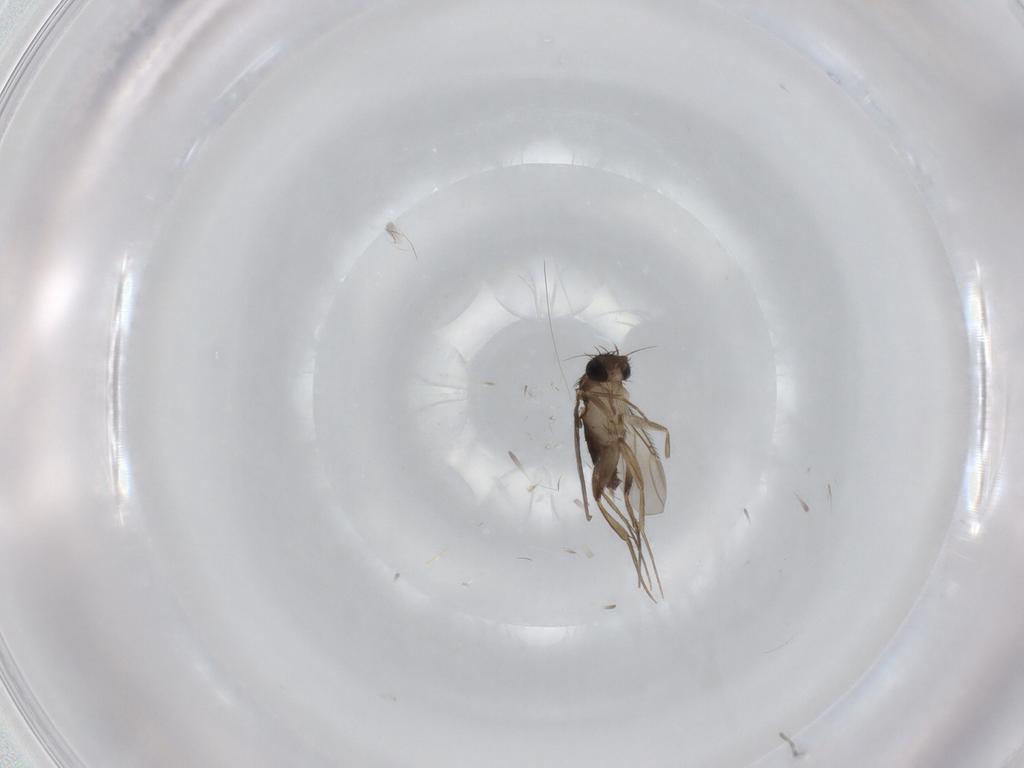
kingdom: Animalia
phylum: Arthropoda
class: Insecta
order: Diptera
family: Phoridae
